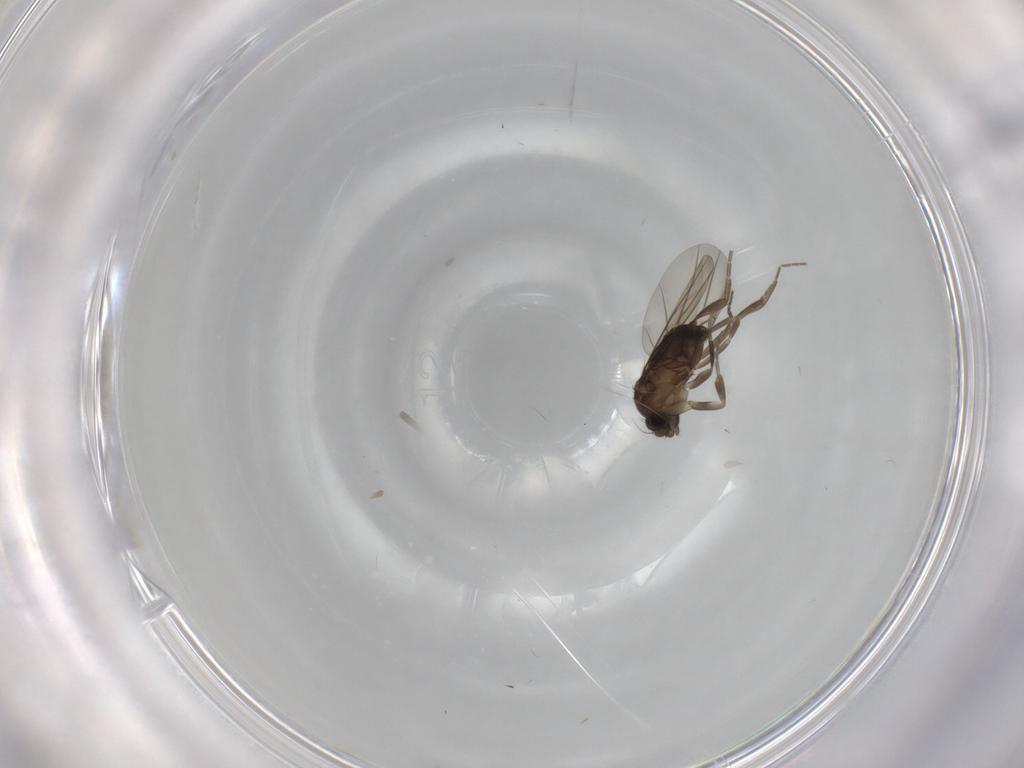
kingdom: Animalia
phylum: Arthropoda
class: Insecta
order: Diptera
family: Phoridae
